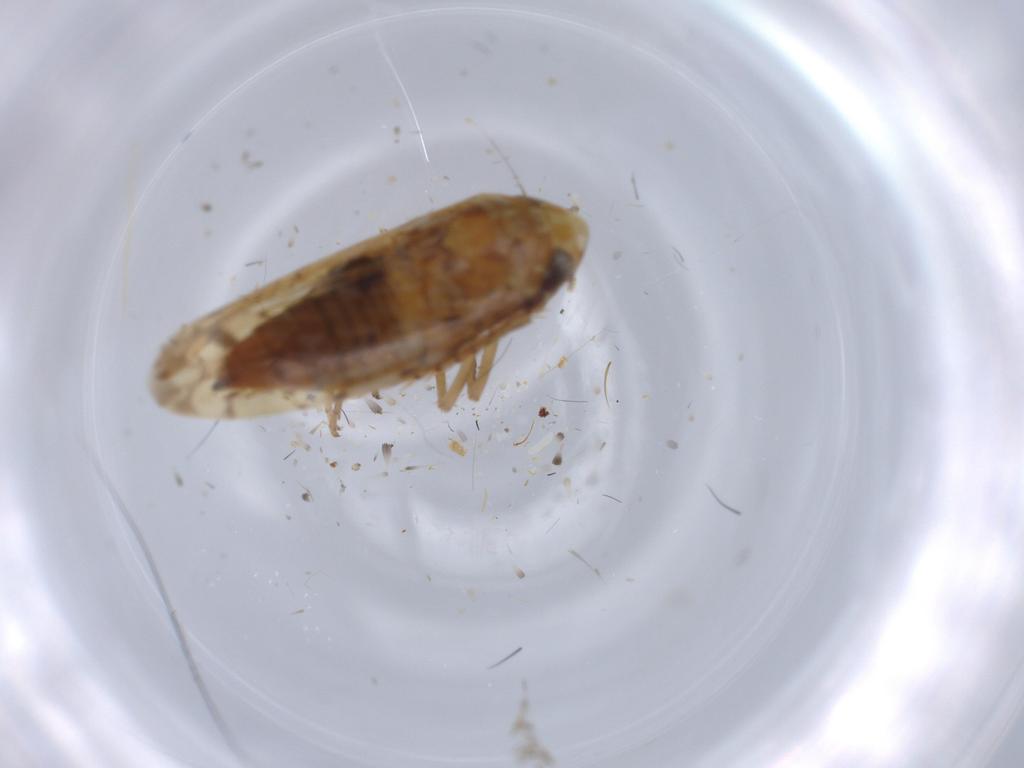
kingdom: Animalia
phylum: Arthropoda
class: Insecta
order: Hemiptera
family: Cicadellidae
